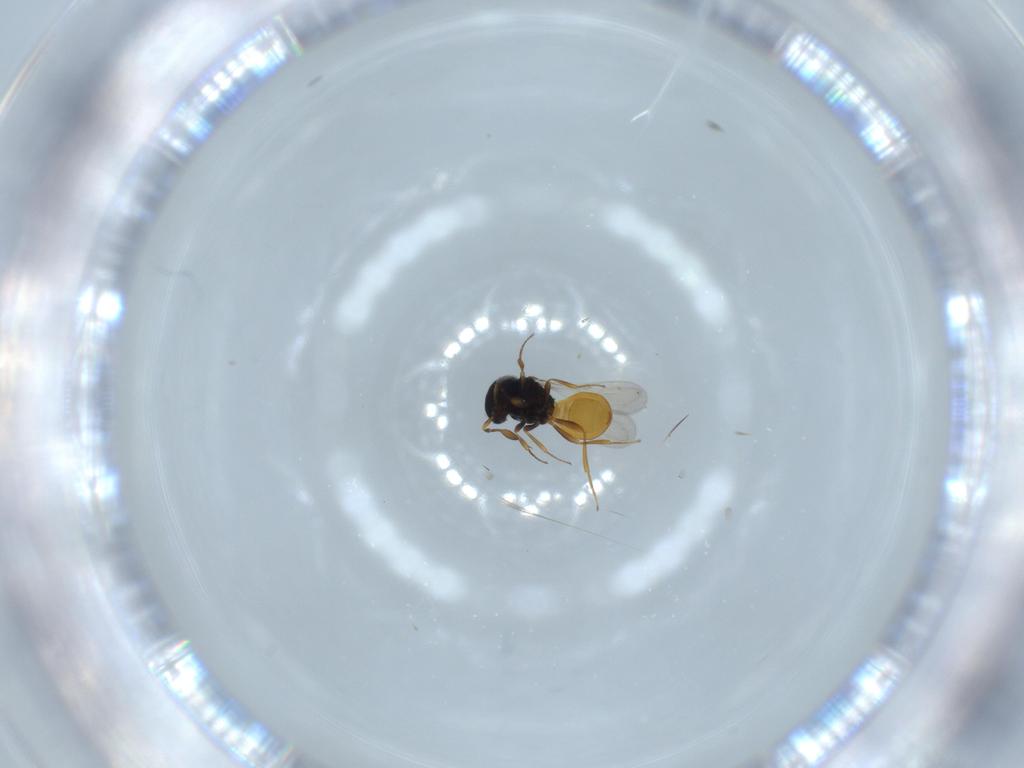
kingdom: Animalia
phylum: Arthropoda
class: Insecta
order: Hymenoptera
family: Scelionidae
